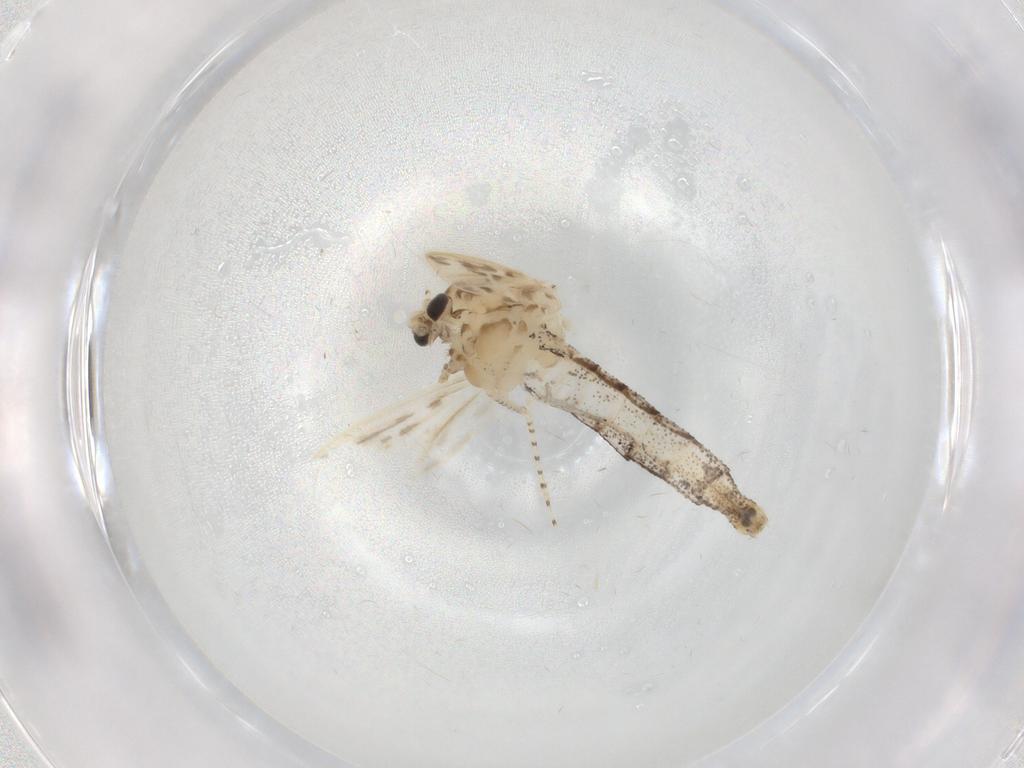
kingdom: Animalia
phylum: Arthropoda
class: Insecta
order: Diptera
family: Chaoboridae
